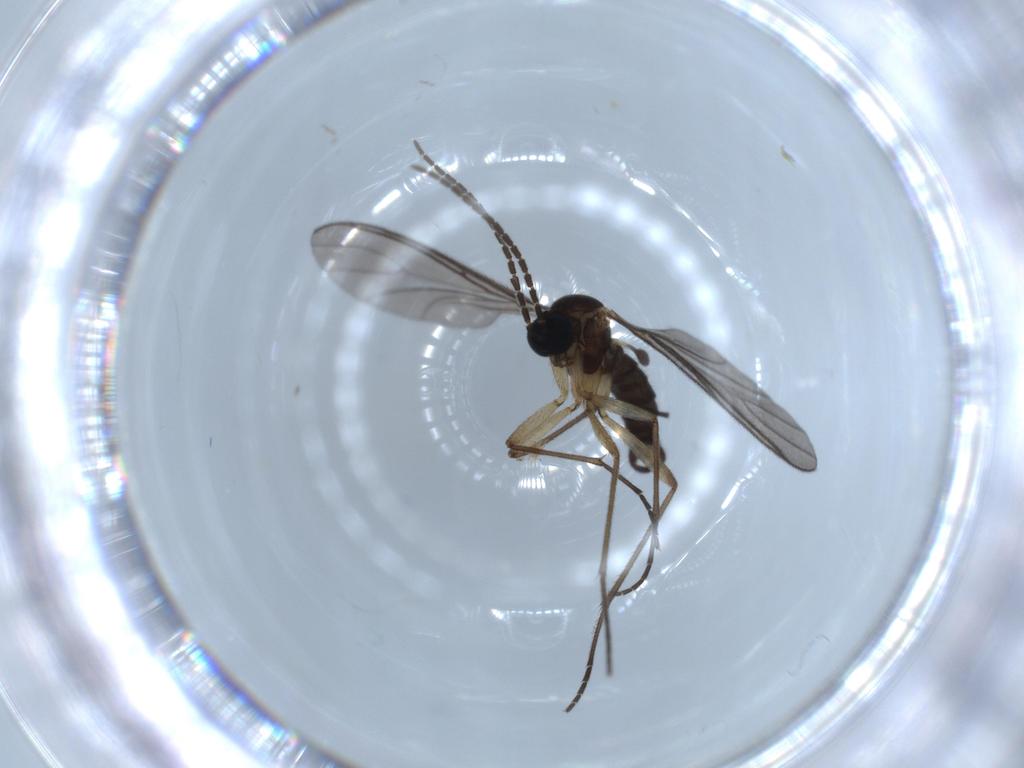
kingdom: Animalia
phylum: Arthropoda
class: Insecta
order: Diptera
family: Sciaridae
